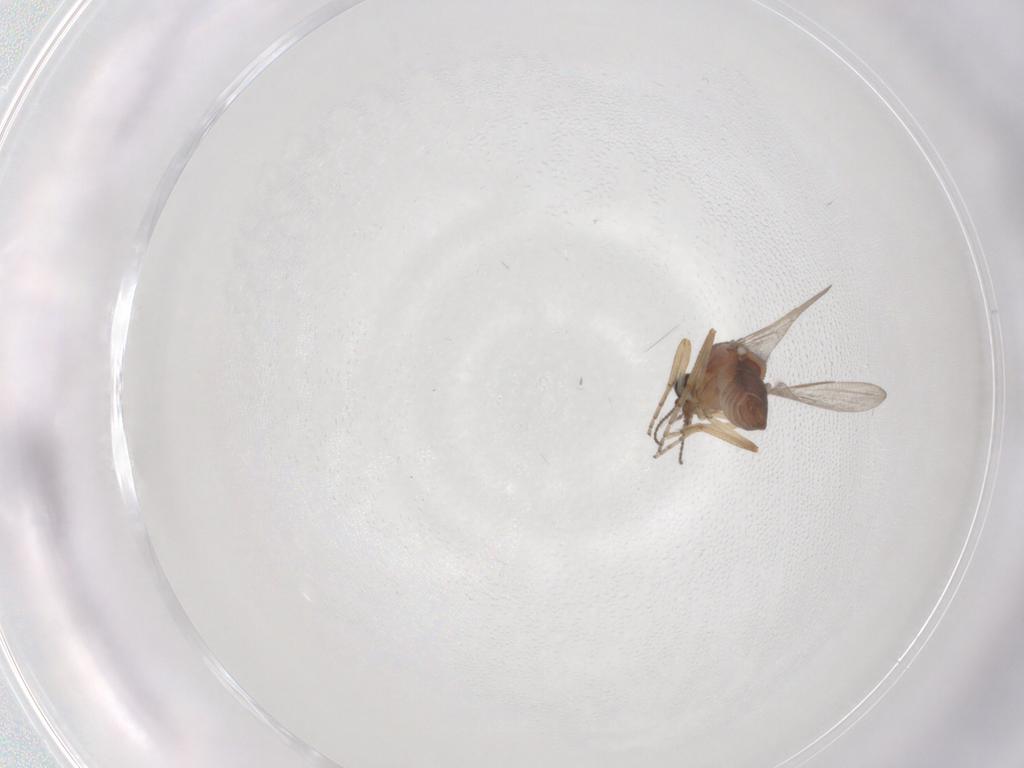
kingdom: Animalia
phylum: Arthropoda
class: Insecta
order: Diptera
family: Ceratopogonidae
